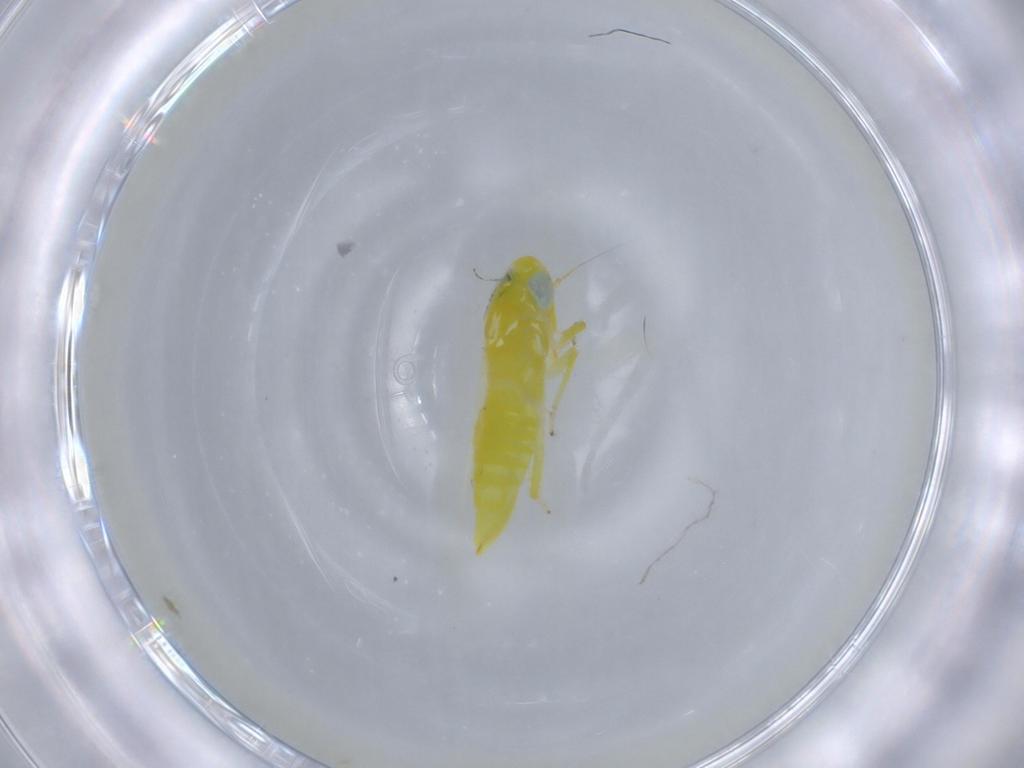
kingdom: Animalia
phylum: Arthropoda
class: Insecta
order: Hemiptera
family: Cicadellidae
